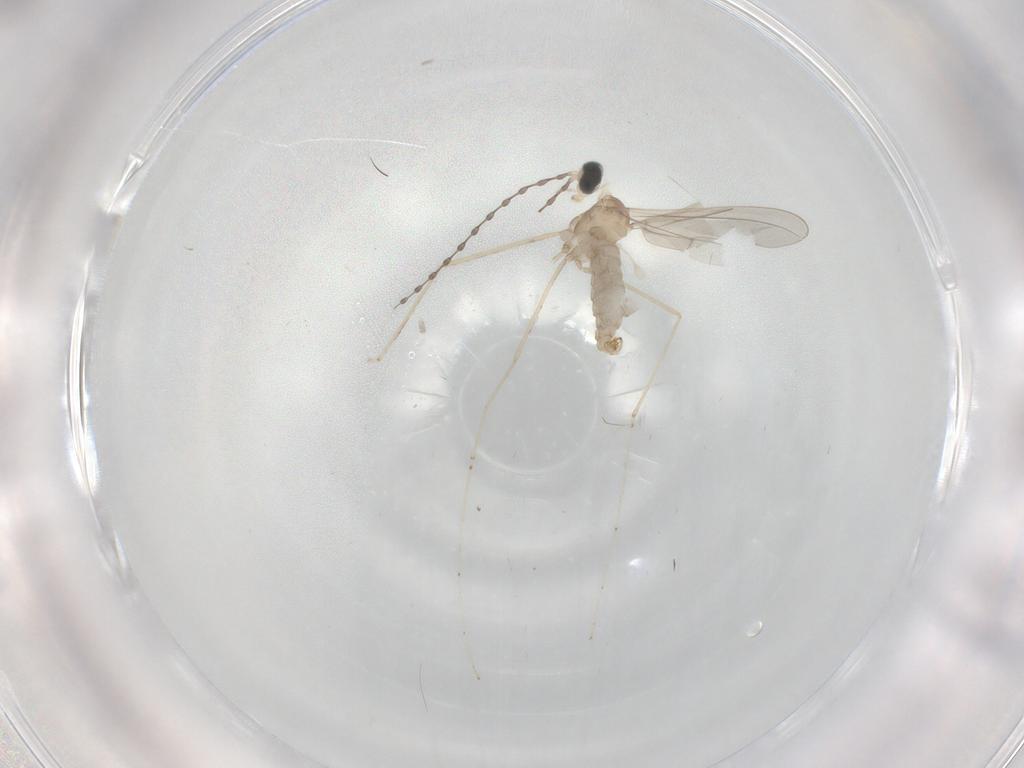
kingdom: Animalia
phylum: Arthropoda
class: Insecta
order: Diptera
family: Cecidomyiidae
